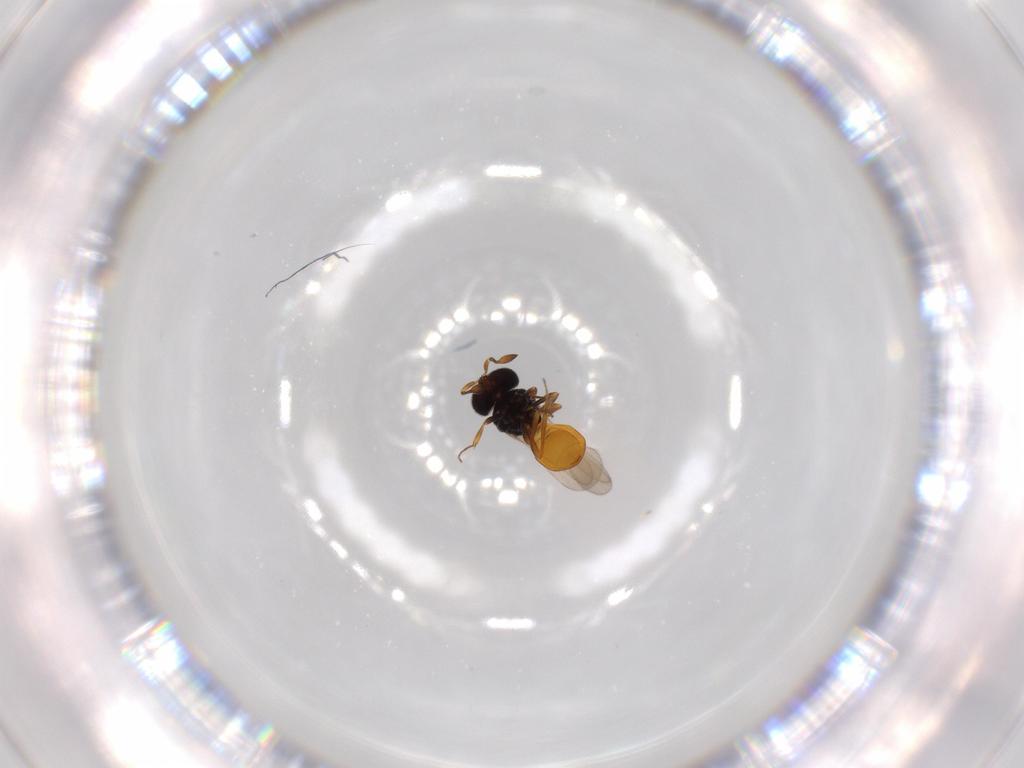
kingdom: Animalia
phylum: Arthropoda
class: Insecta
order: Hymenoptera
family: Scelionidae
